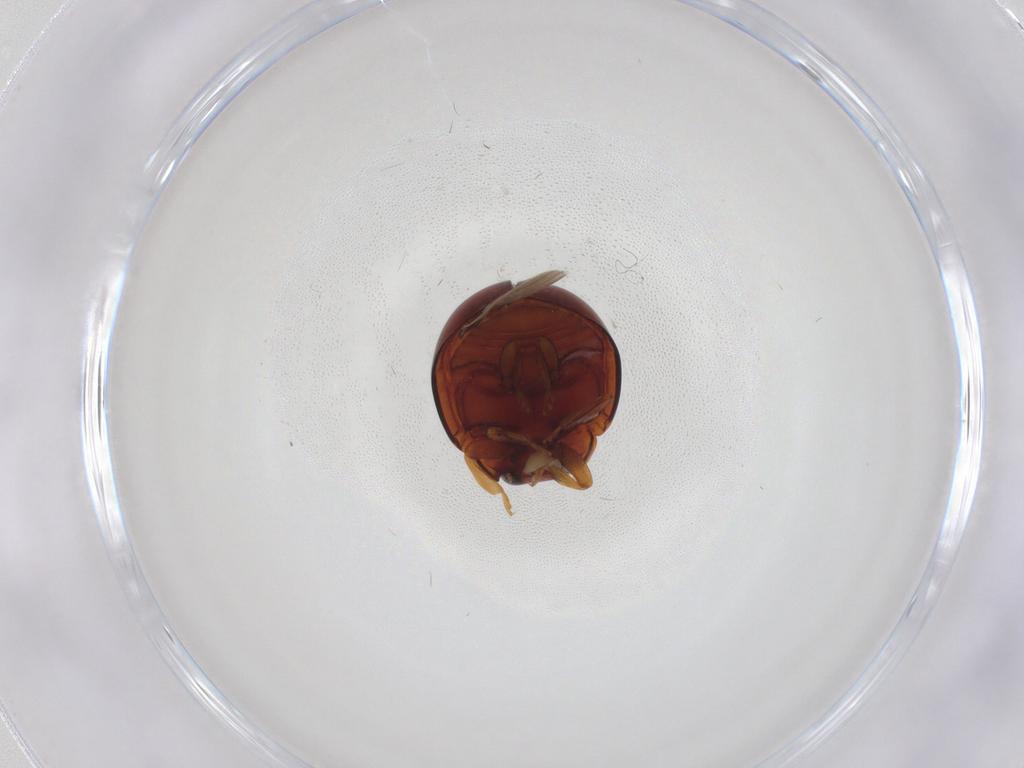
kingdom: Animalia
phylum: Arthropoda
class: Insecta
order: Coleoptera
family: Coccinellidae
